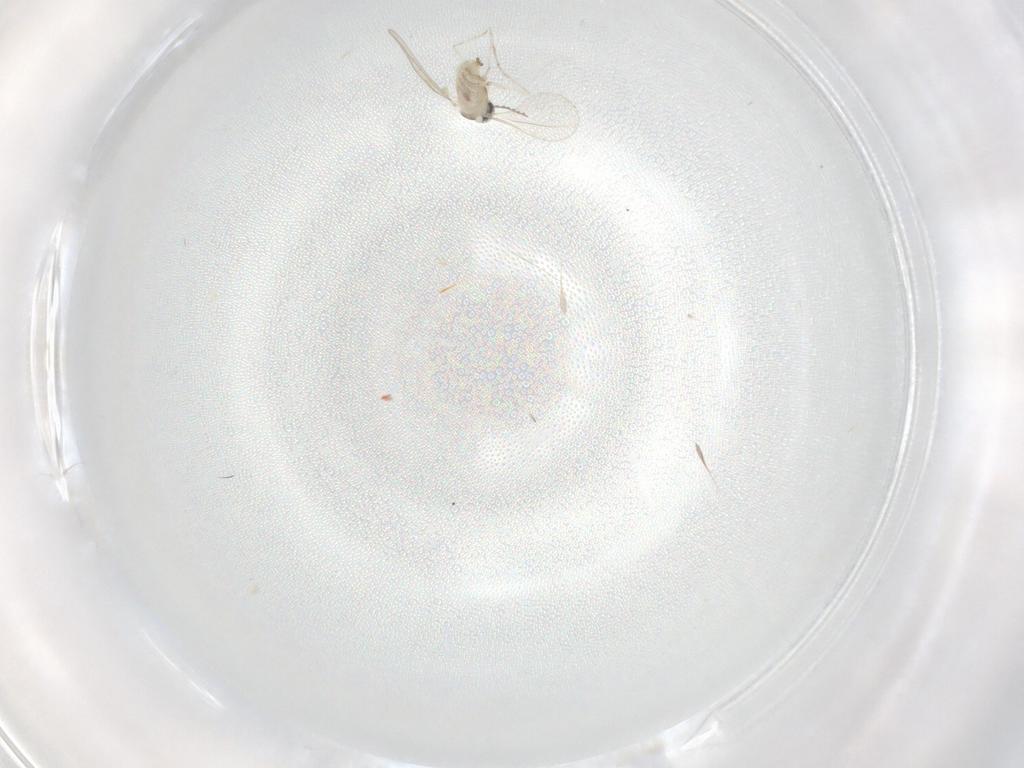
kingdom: Animalia
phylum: Arthropoda
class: Insecta
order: Diptera
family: Cecidomyiidae
